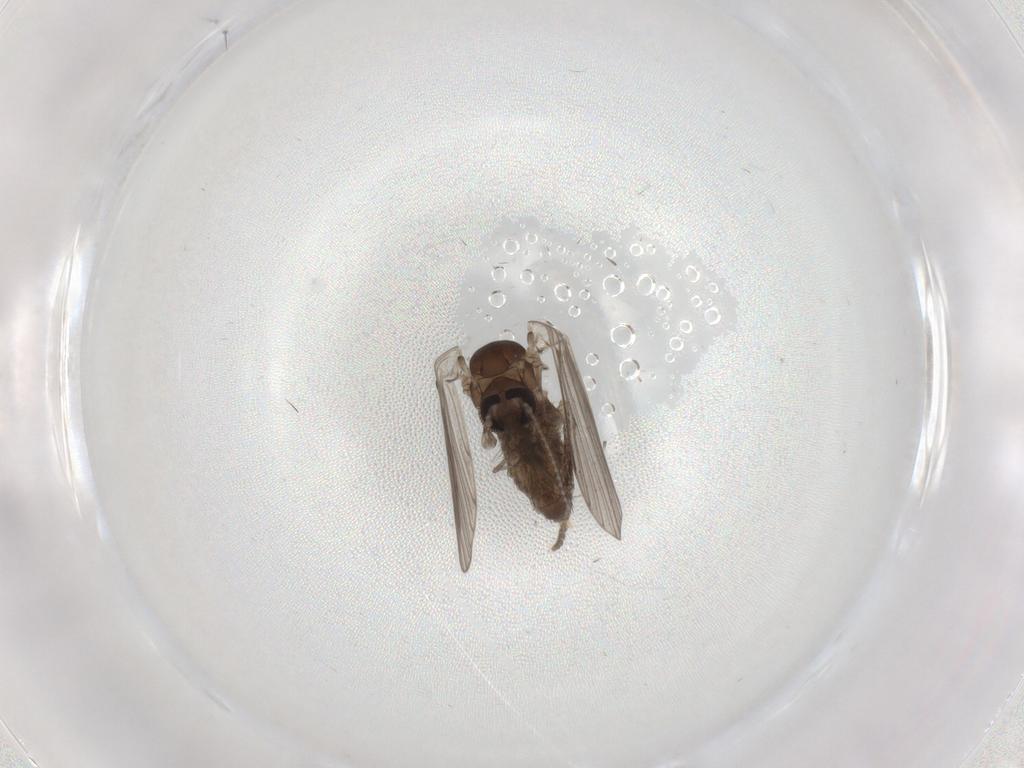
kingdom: Animalia
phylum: Arthropoda
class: Insecta
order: Diptera
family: Psychodidae
